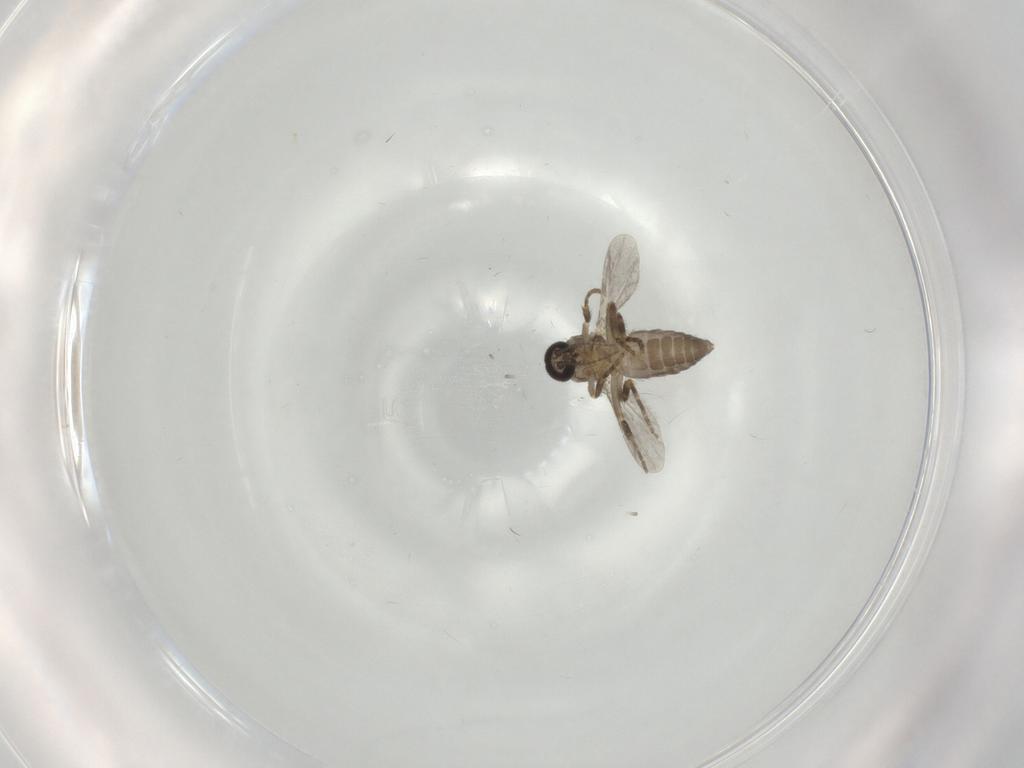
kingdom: Animalia
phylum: Arthropoda
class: Insecta
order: Diptera
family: Ceratopogonidae
